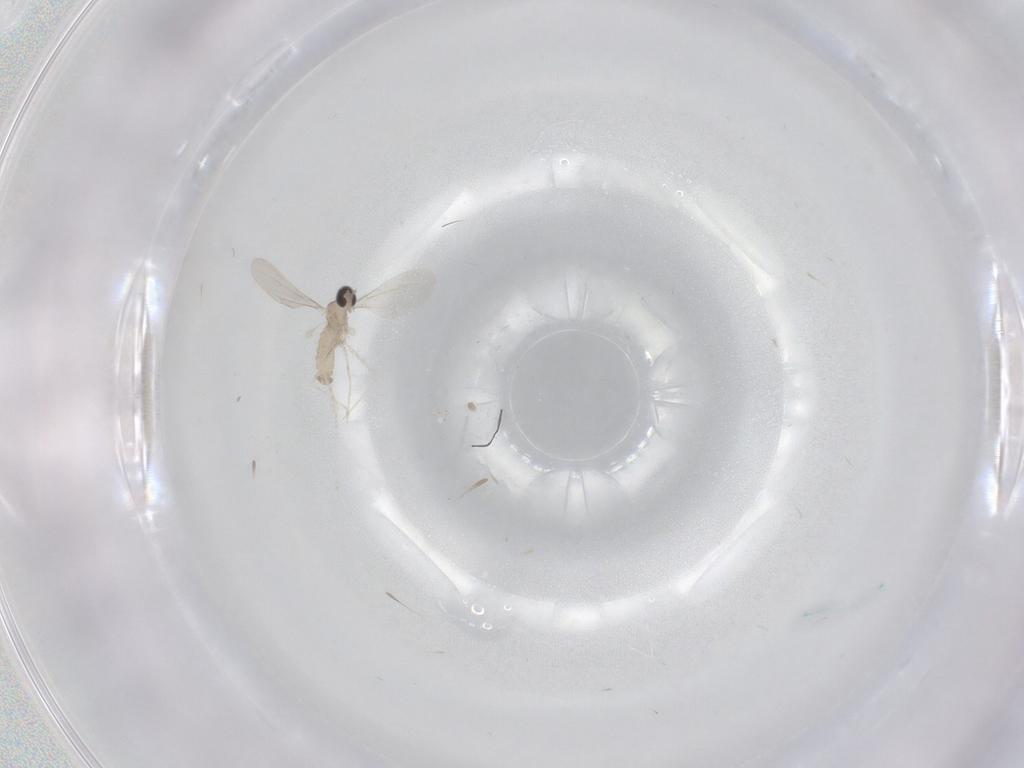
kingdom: Animalia
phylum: Arthropoda
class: Insecta
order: Diptera
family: Cecidomyiidae
